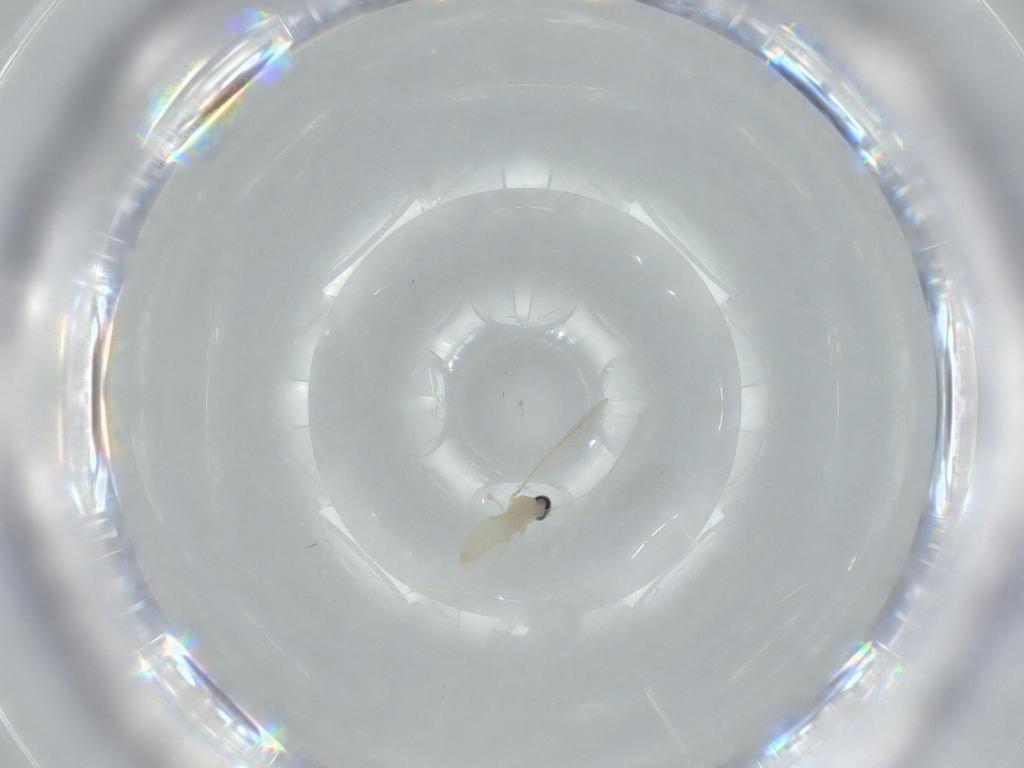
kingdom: Animalia
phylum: Arthropoda
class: Insecta
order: Diptera
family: Cecidomyiidae
